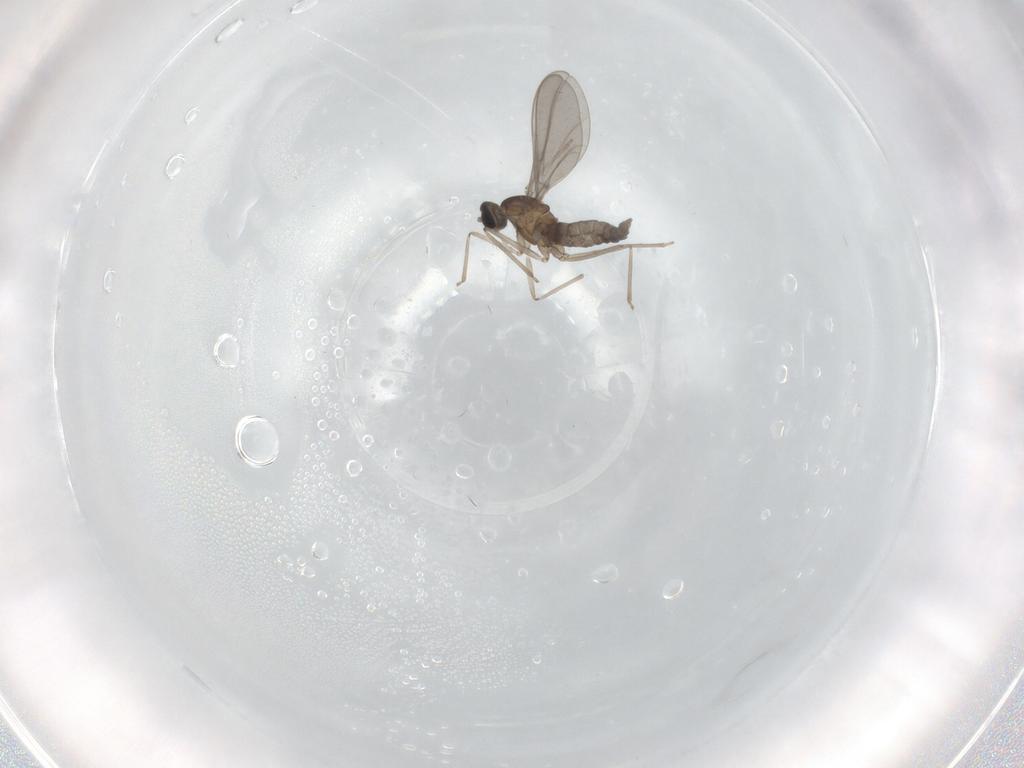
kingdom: Animalia
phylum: Arthropoda
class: Insecta
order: Diptera
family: Cecidomyiidae
